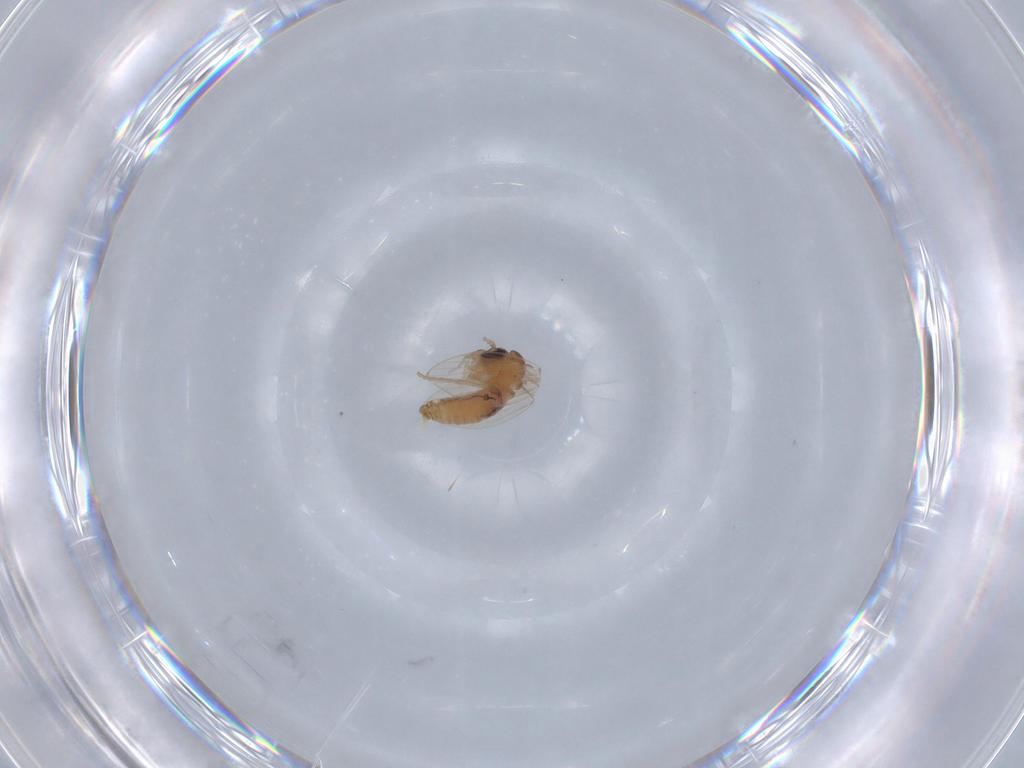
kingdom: Animalia
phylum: Arthropoda
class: Insecta
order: Diptera
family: Psychodidae
